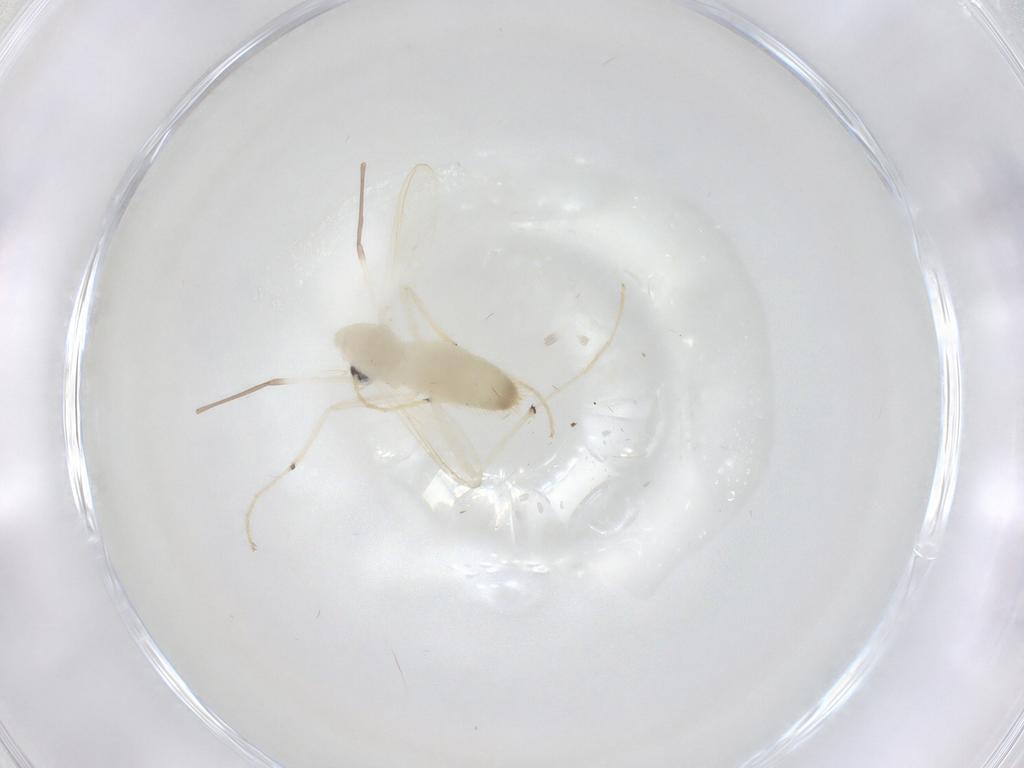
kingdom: Animalia
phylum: Arthropoda
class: Insecta
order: Diptera
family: Chironomidae
